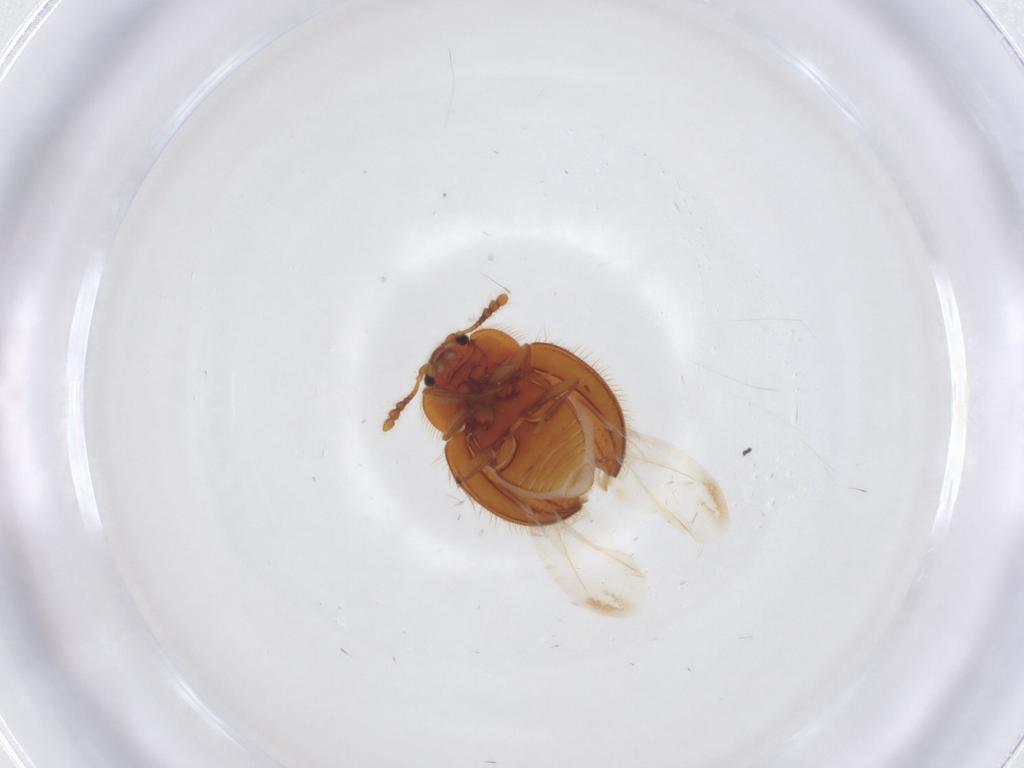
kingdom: Animalia
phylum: Arthropoda
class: Insecta
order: Coleoptera
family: Anamorphidae
